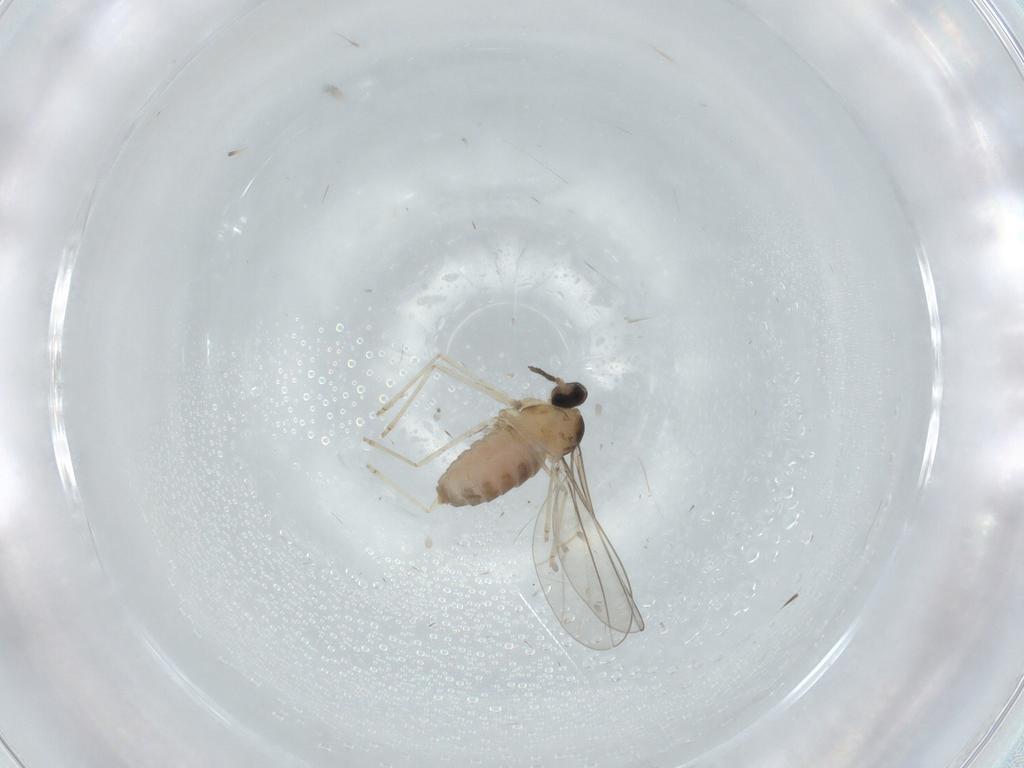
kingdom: Animalia
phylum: Arthropoda
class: Insecta
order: Diptera
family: Cecidomyiidae
